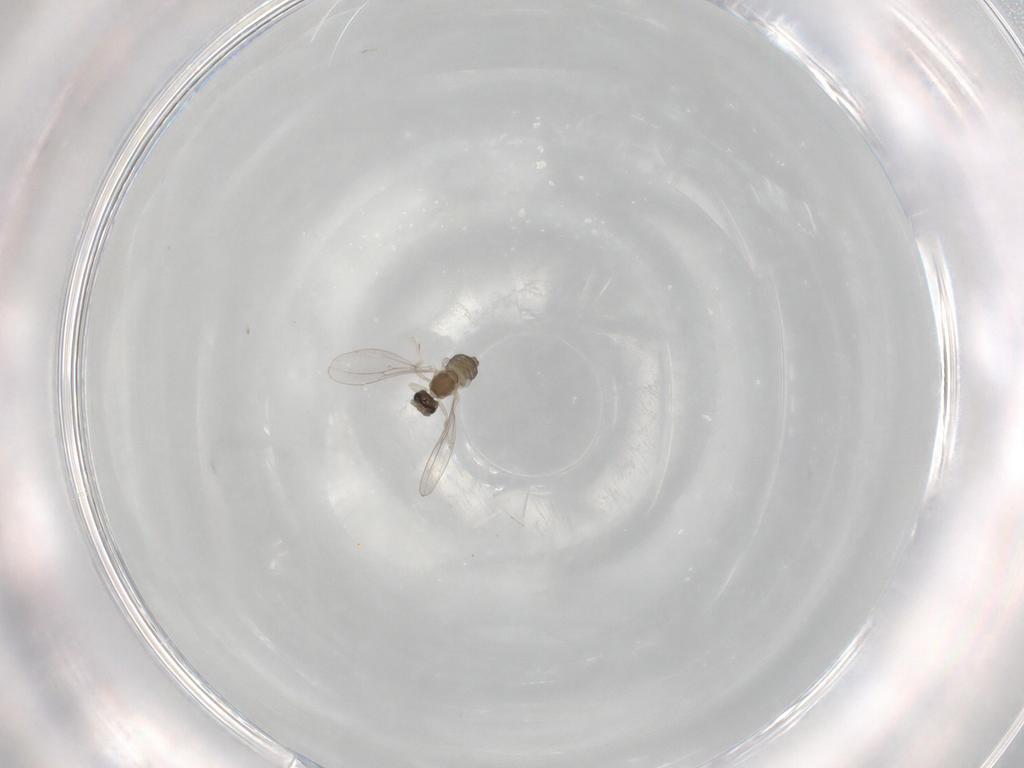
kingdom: Animalia
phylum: Arthropoda
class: Insecta
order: Diptera
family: Cecidomyiidae
